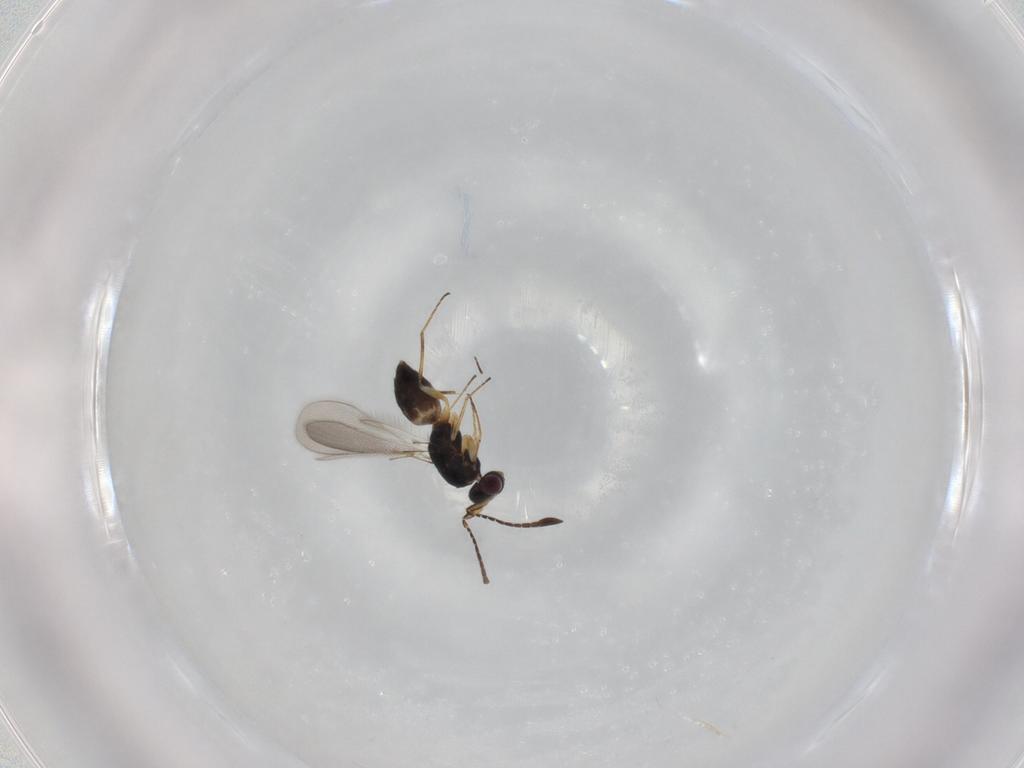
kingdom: Animalia
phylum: Arthropoda
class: Insecta
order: Hymenoptera
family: Mymaridae
